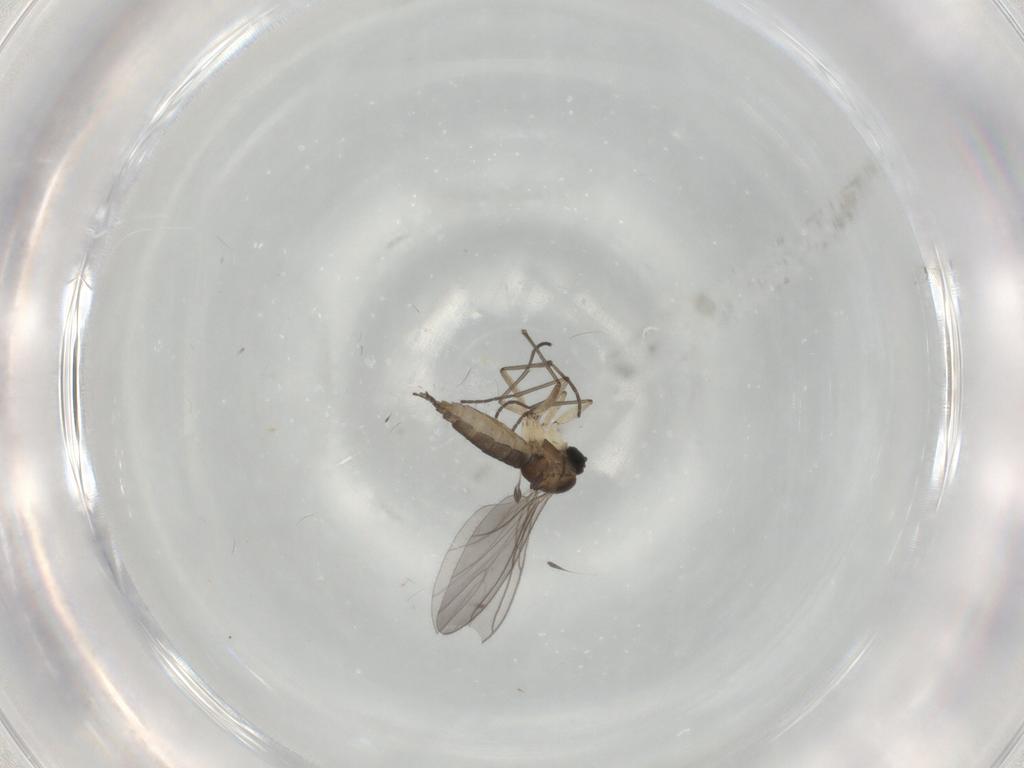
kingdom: Animalia
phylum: Arthropoda
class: Insecta
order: Diptera
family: Sciaridae
